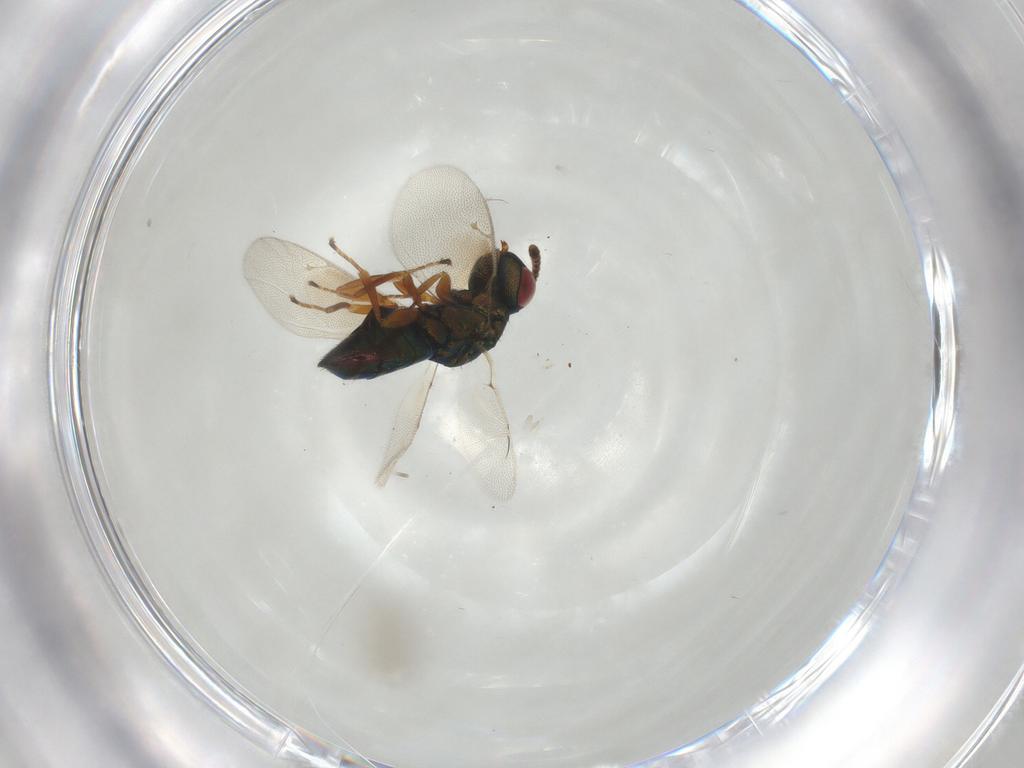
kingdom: Animalia
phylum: Arthropoda
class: Insecta
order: Hymenoptera
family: Pteromalidae
